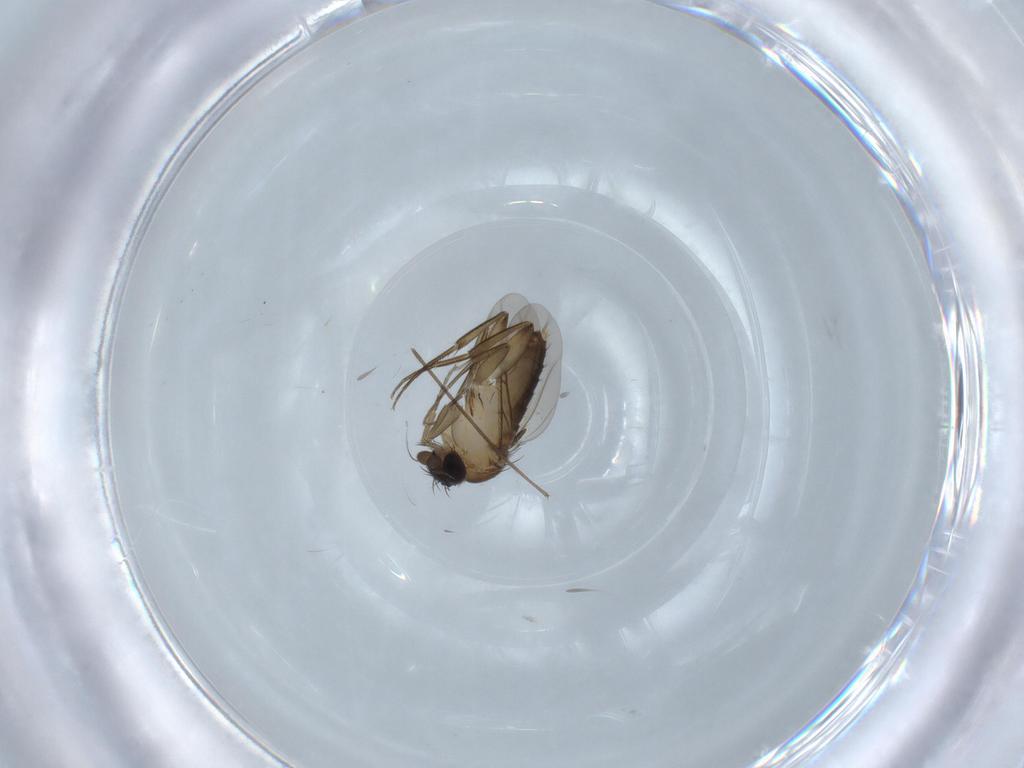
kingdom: Animalia
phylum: Arthropoda
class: Insecta
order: Diptera
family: Phoridae
